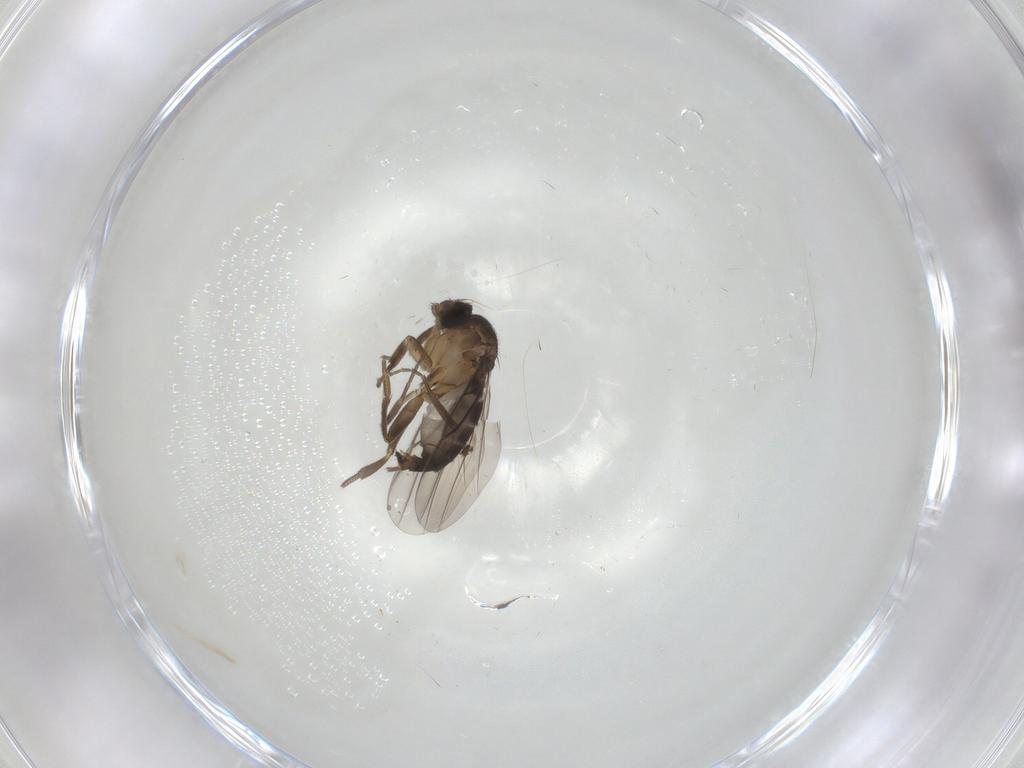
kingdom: Animalia
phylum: Arthropoda
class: Insecta
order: Diptera
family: Phoridae
